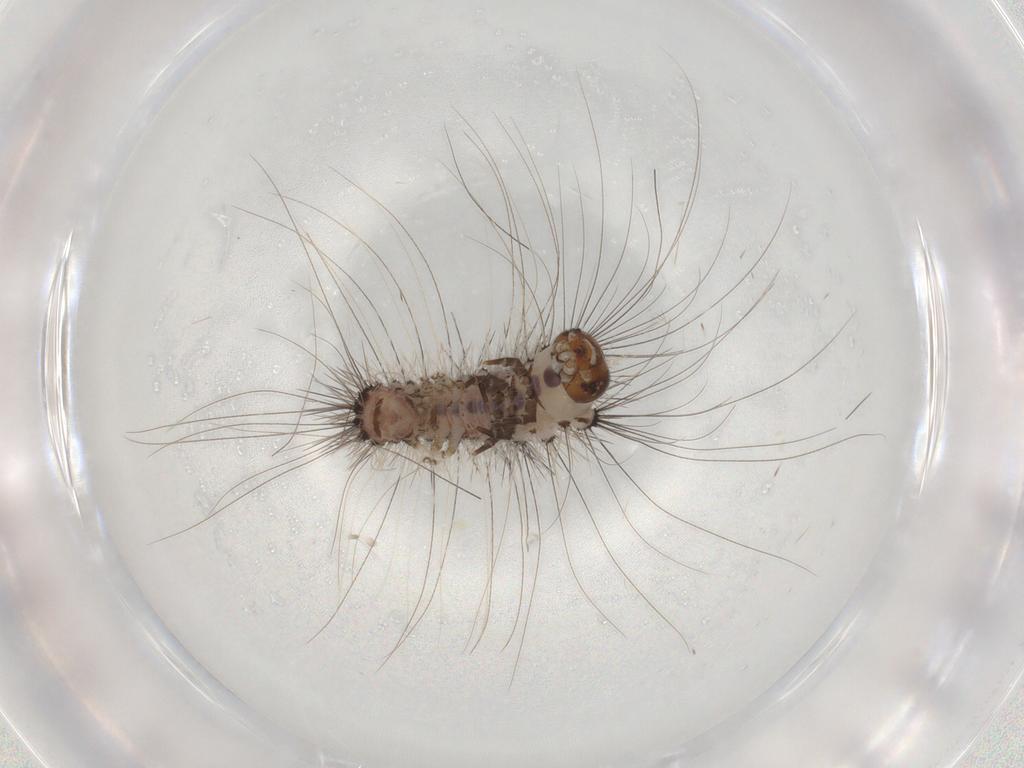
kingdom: Animalia
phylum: Arthropoda
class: Insecta
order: Lepidoptera
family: Scythrididae
